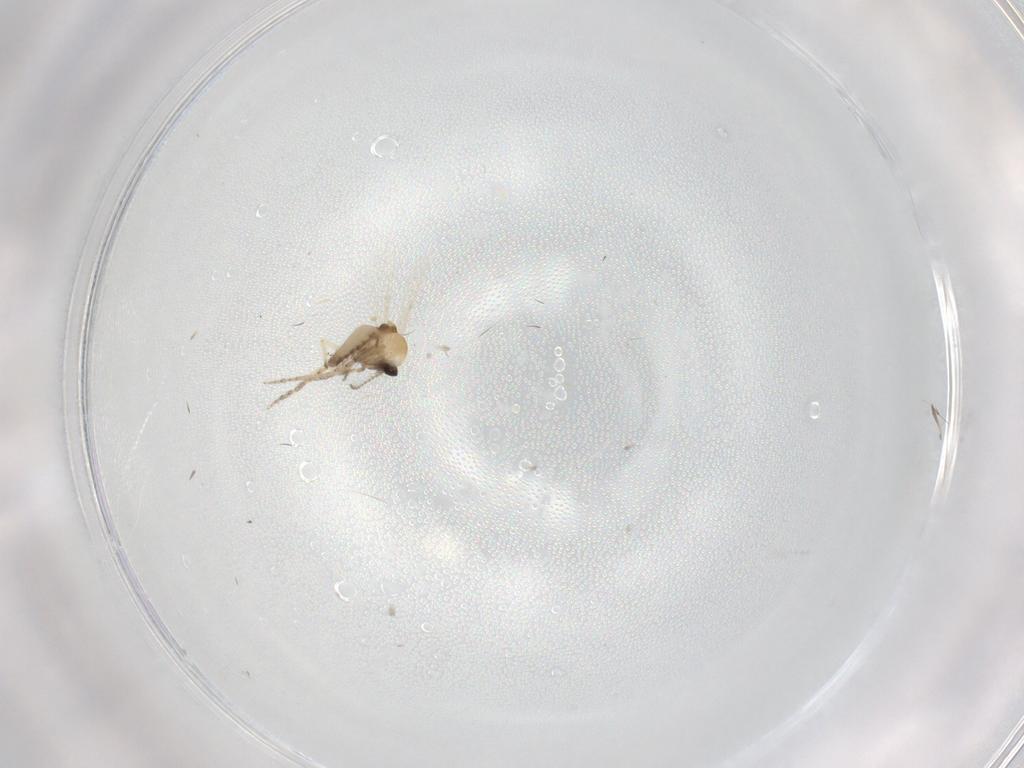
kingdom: Animalia
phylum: Arthropoda
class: Insecta
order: Diptera
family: Ceratopogonidae
